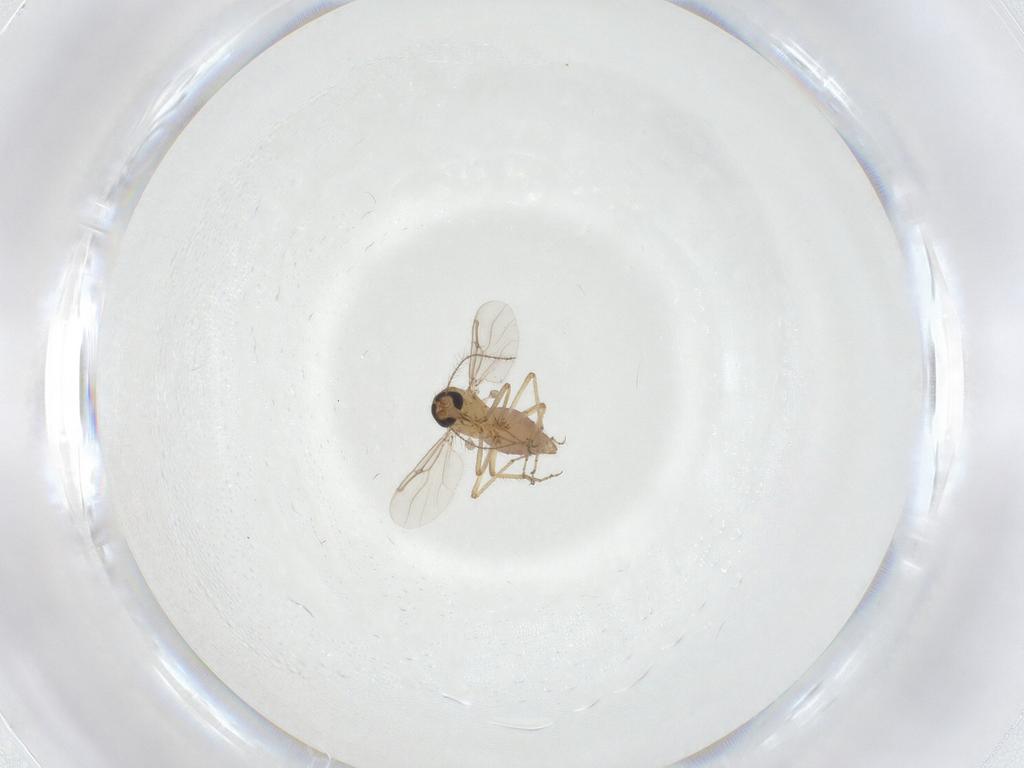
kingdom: Animalia
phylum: Arthropoda
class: Insecta
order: Diptera
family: Ceratopogonidae
